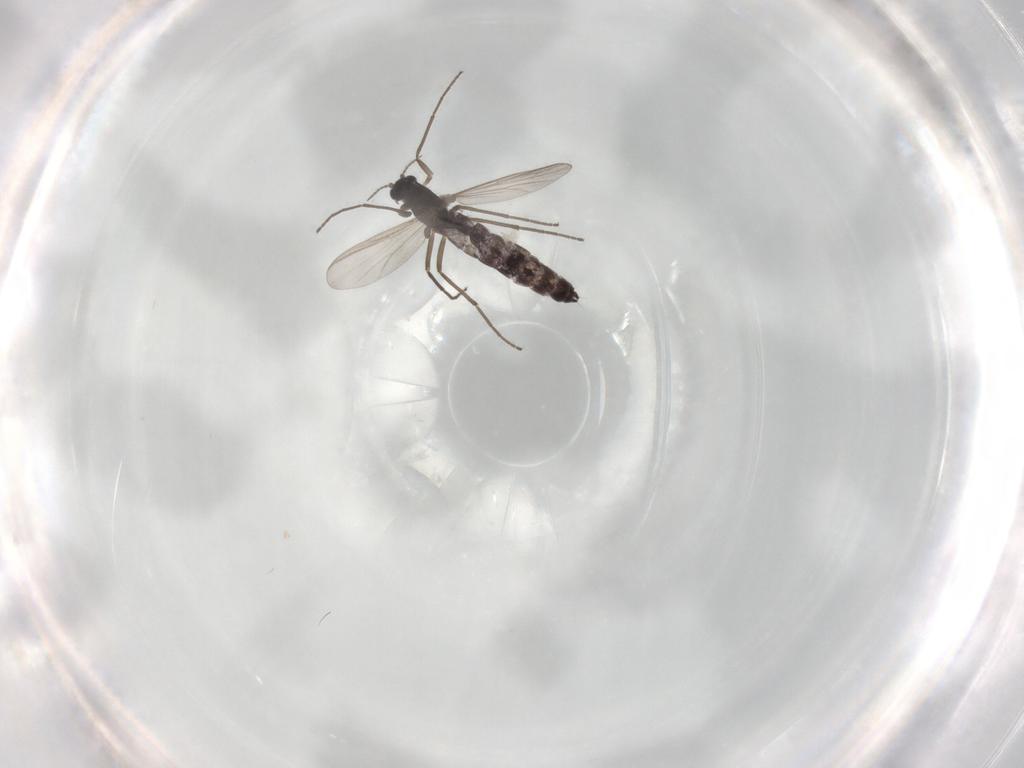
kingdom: Animalia
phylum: Arthropoda
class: Insecta
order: Diptera
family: Chironomidae
